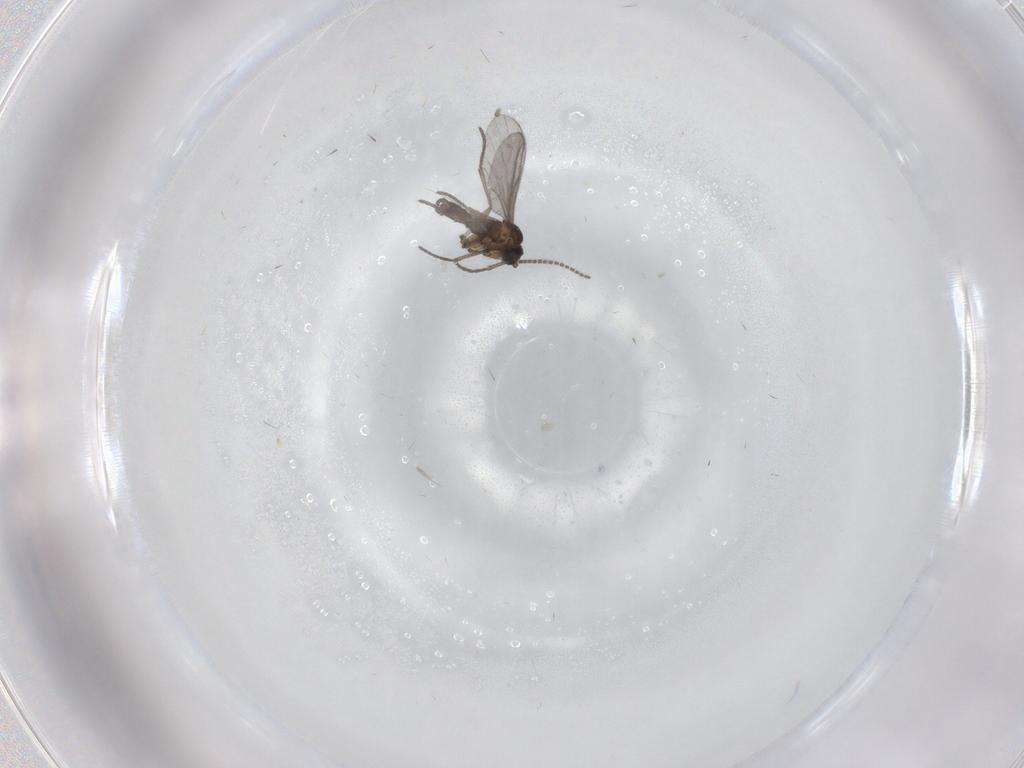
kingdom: Animalia
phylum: Arthropoda
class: Insecta
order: Diptera
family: Sciaridae
